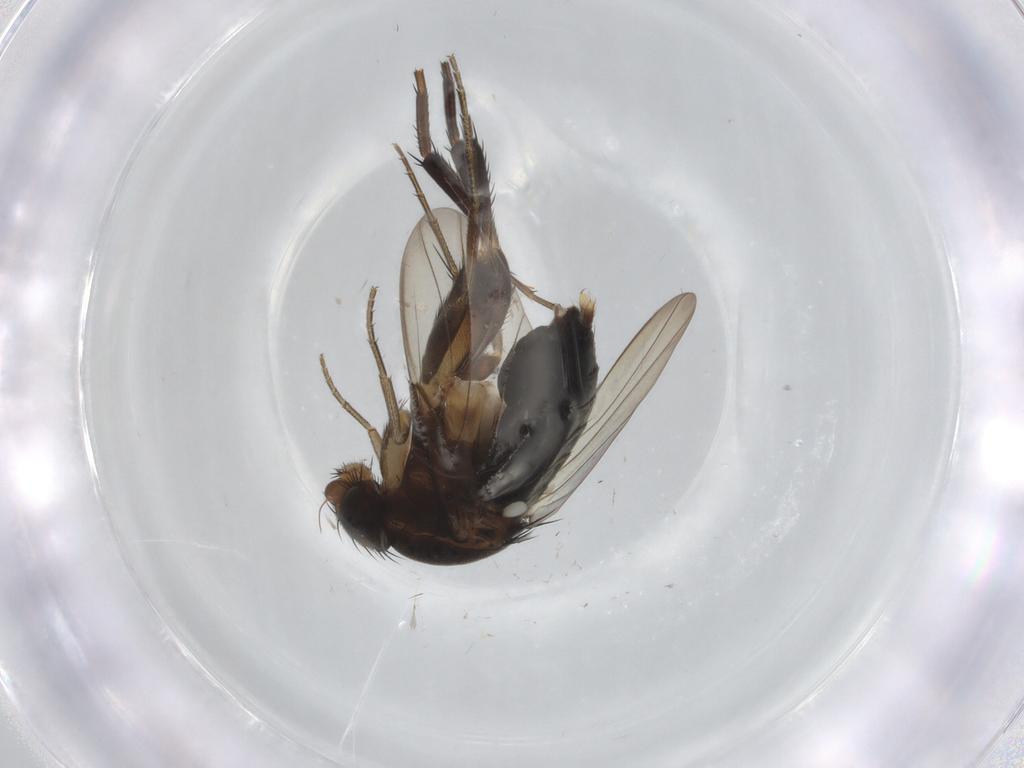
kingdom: Animalia
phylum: Arthropoda
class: Insecta
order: Diptera
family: Phoridae
